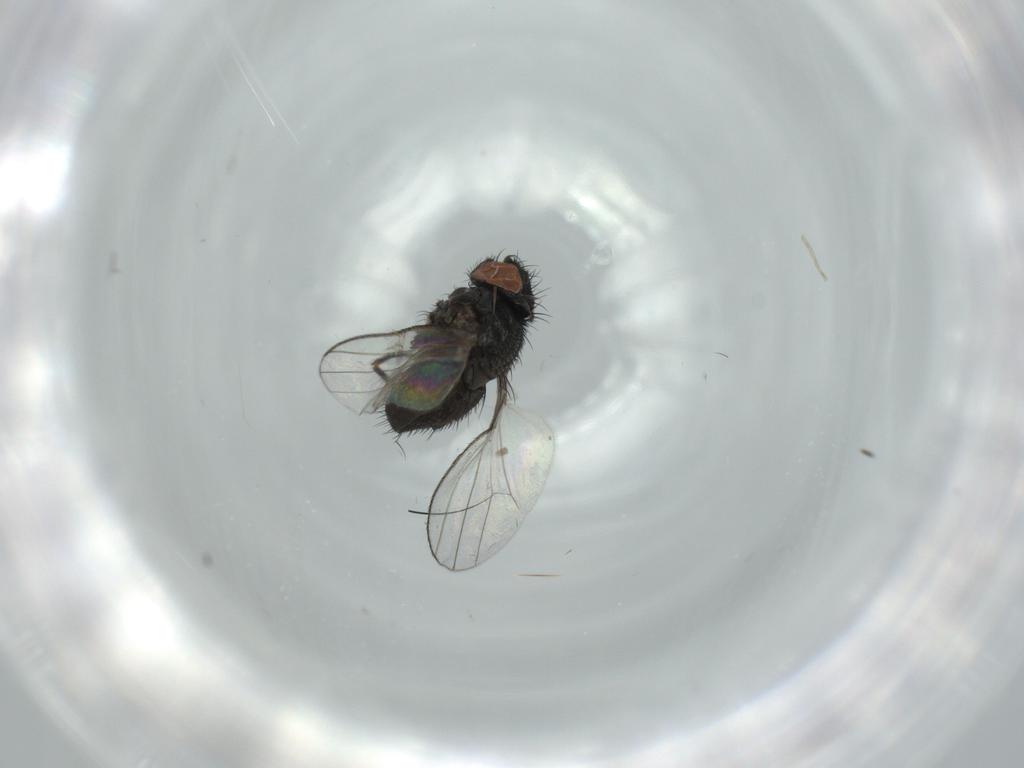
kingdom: Animalia
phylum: Arthropoda
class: Insecta
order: Diptera
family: Milichiidae
